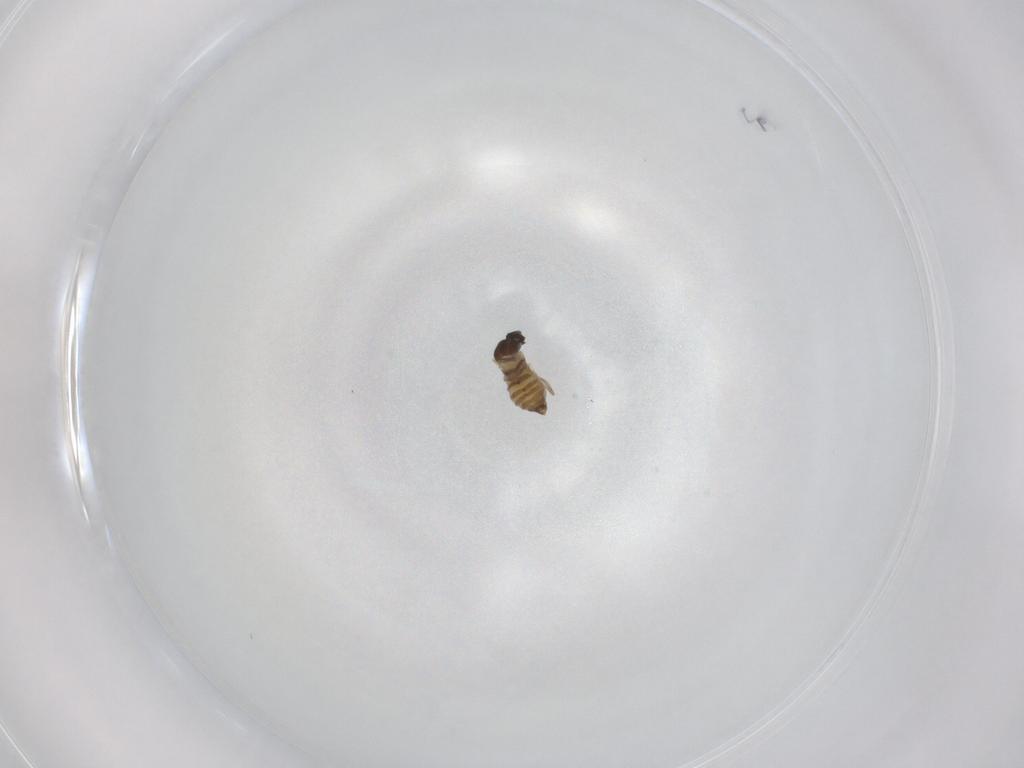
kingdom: Animalia
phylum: Arthropoda
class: Insecta
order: Diptera
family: Cecidomyiidae
